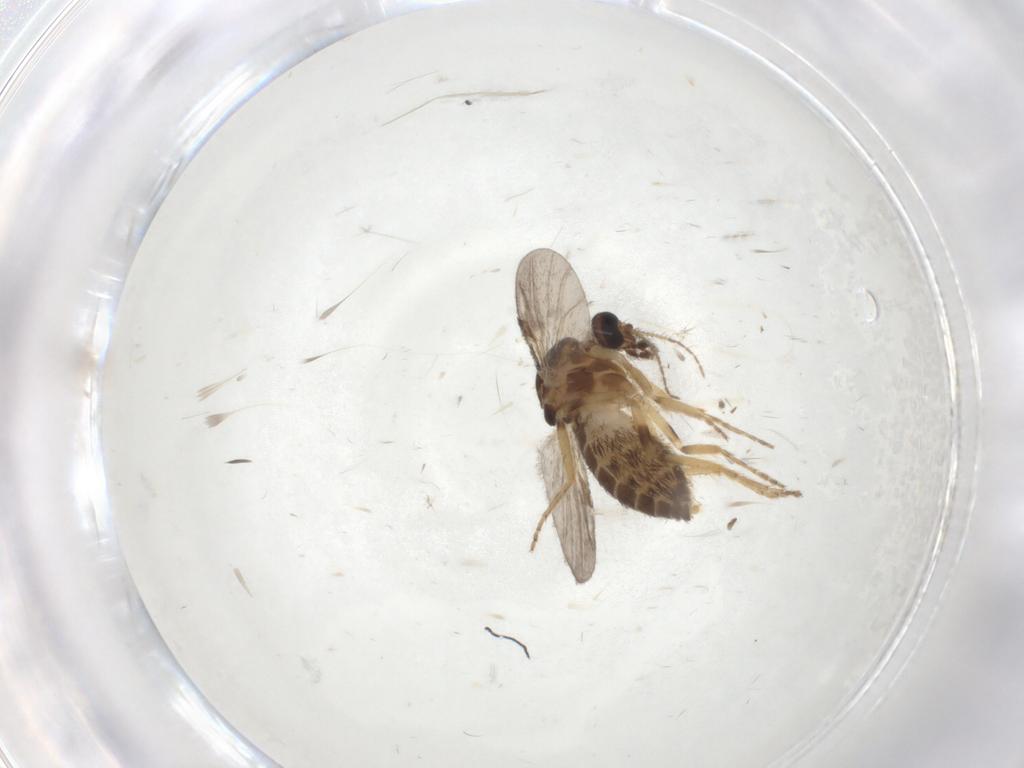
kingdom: Animalia
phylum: Arthropoda
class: Insecta
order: Diptera
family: Ceratopogonidae
